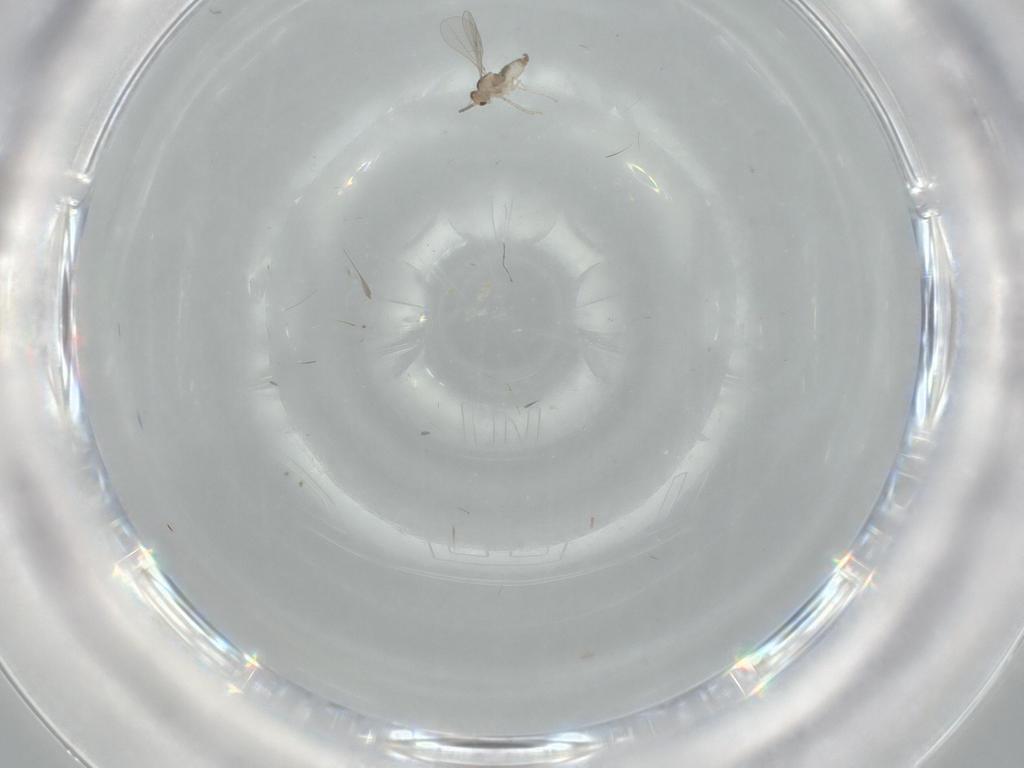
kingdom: Animalia
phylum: Arthropoda
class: Insecta
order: Diptera
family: Cecidomyiidae
